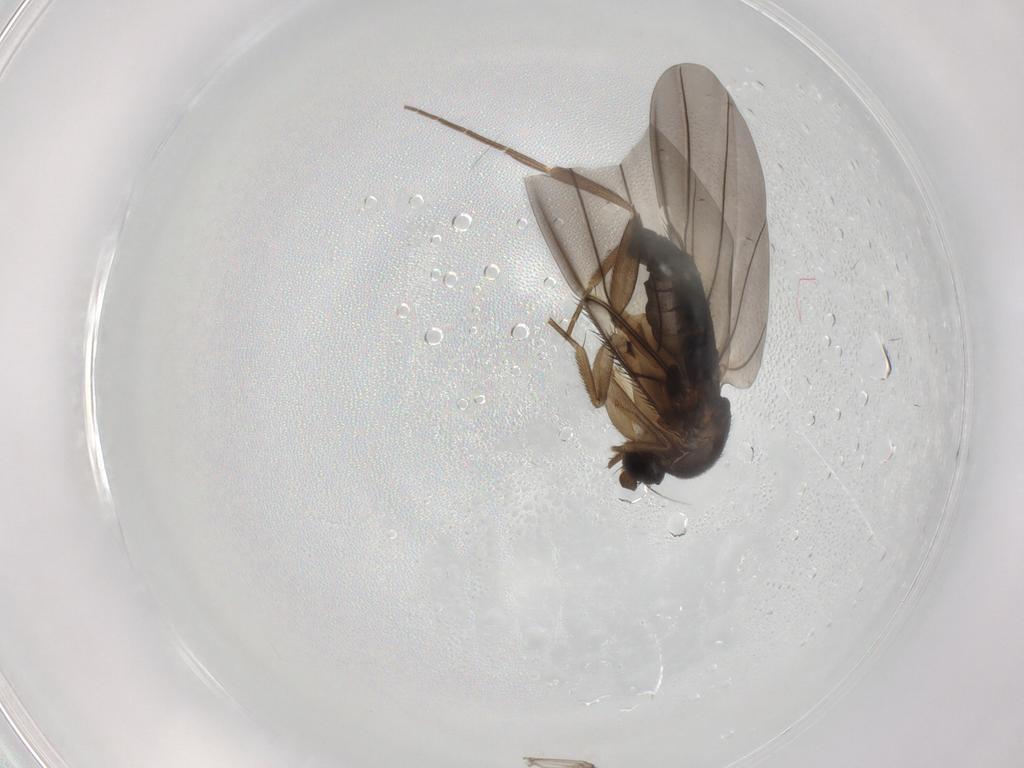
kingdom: Animalia
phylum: Arthropoda
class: Insecta
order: Diptera
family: Phoridae
